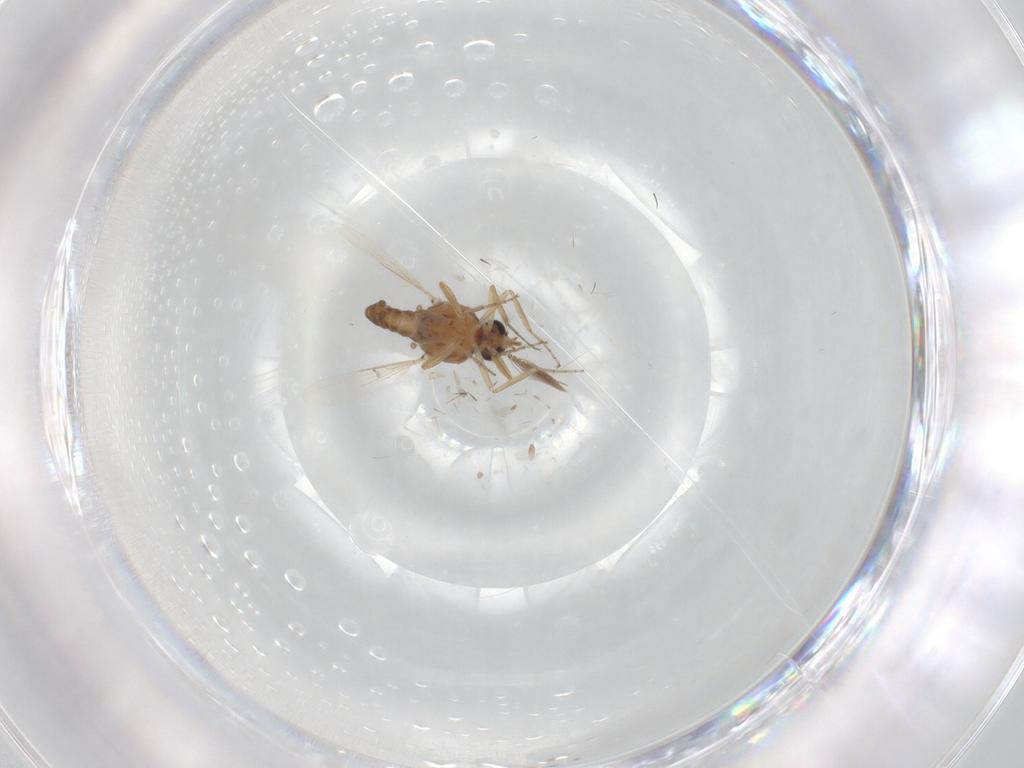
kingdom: Animalia
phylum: Arthropoda
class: Insecta
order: Diptera
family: Ceratopogonidae
